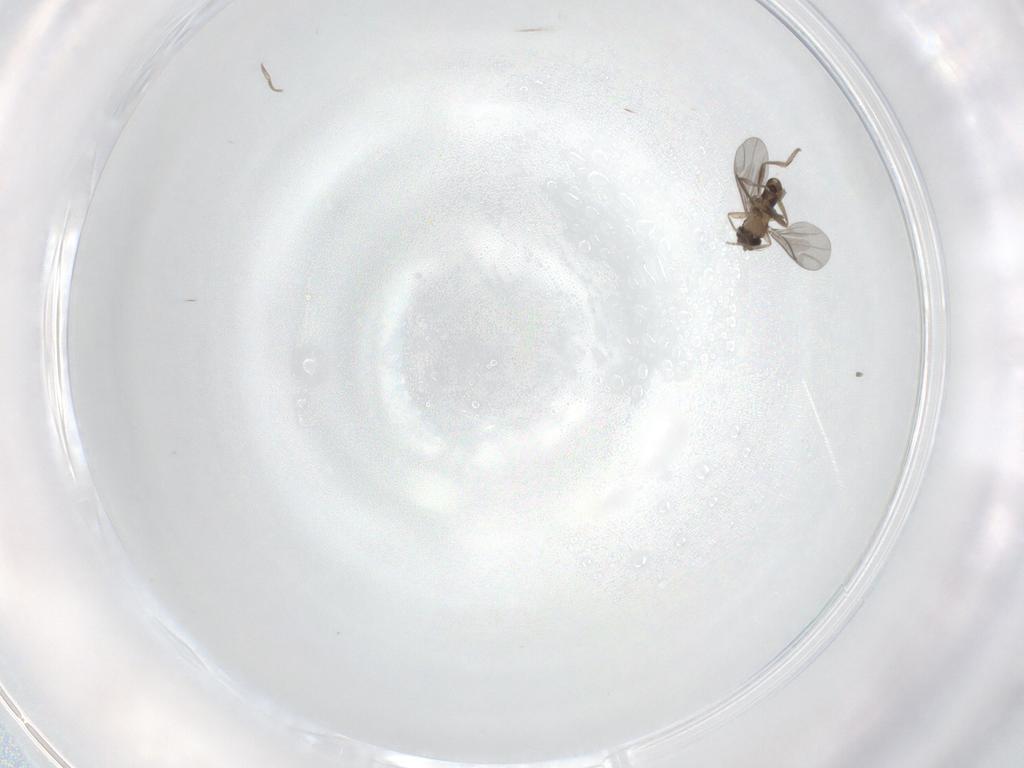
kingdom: Animalia
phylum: Arthropoda
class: Insecta
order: Diptera
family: Phoridae
